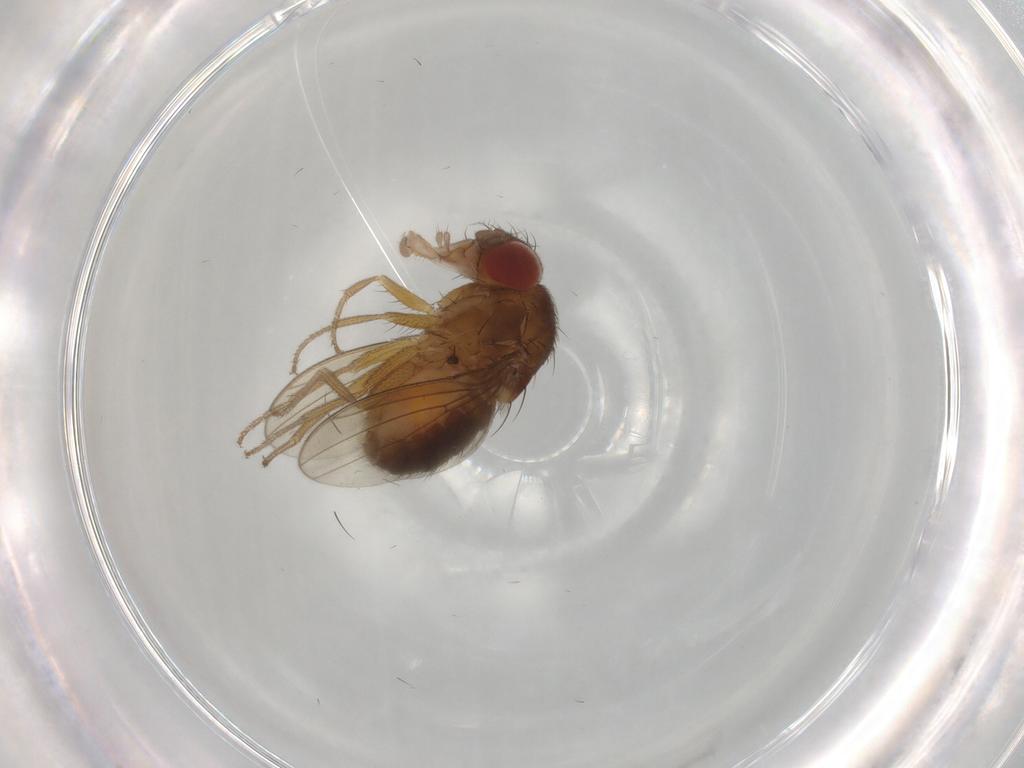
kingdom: Animalia
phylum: Arthropoda
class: Insecta
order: Diptera
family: Drosophilidae
